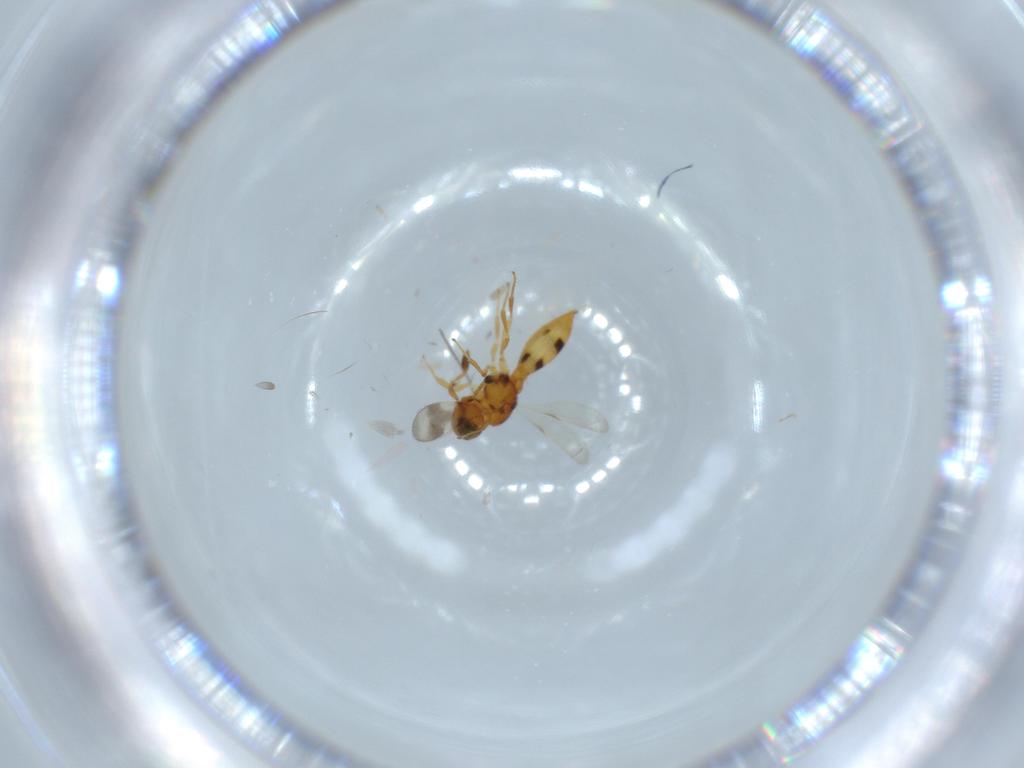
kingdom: Animalia
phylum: Arthropoda
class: Insecta
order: Hymenoptera
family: Scelionidae
